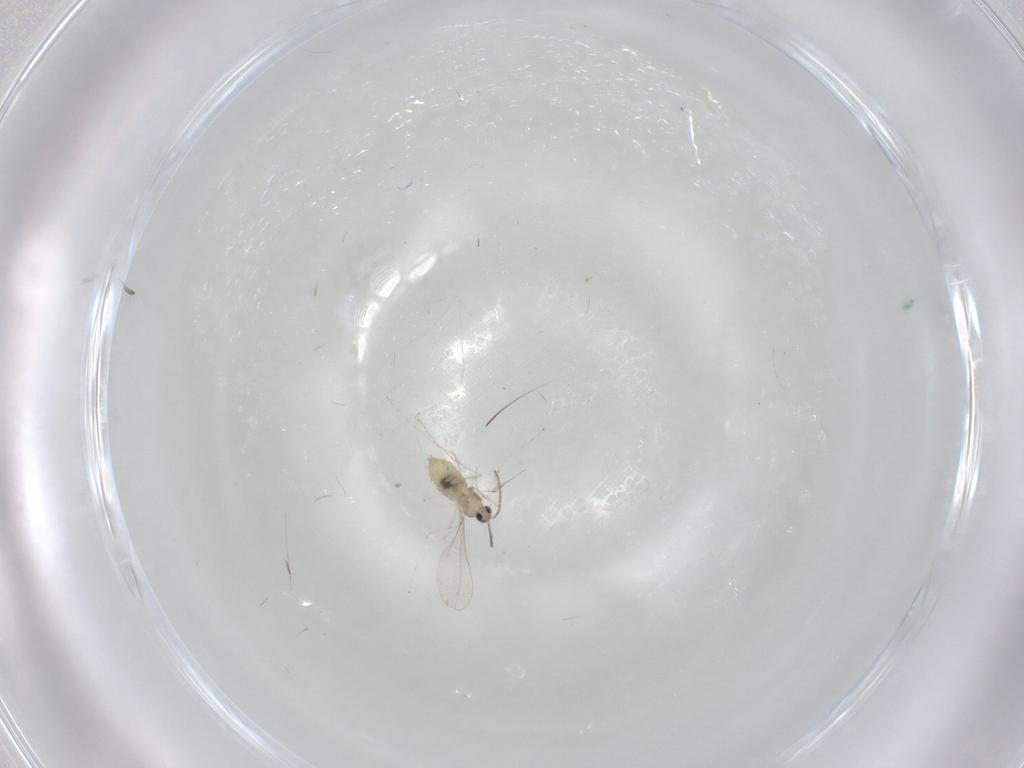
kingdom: Animalia
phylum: Arthropoda
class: Insecta
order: Diptera
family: Cecidomyiidae
